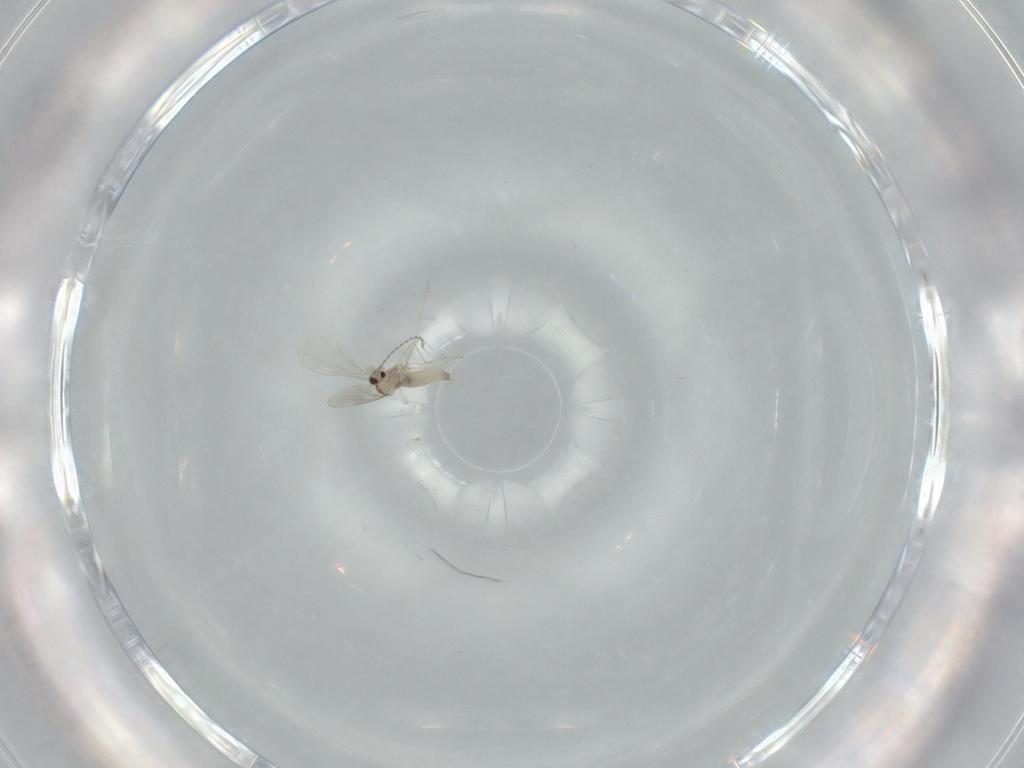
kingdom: Animalia
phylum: Arthropoda
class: Insecta
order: Diptera
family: Cecidomyiidae
